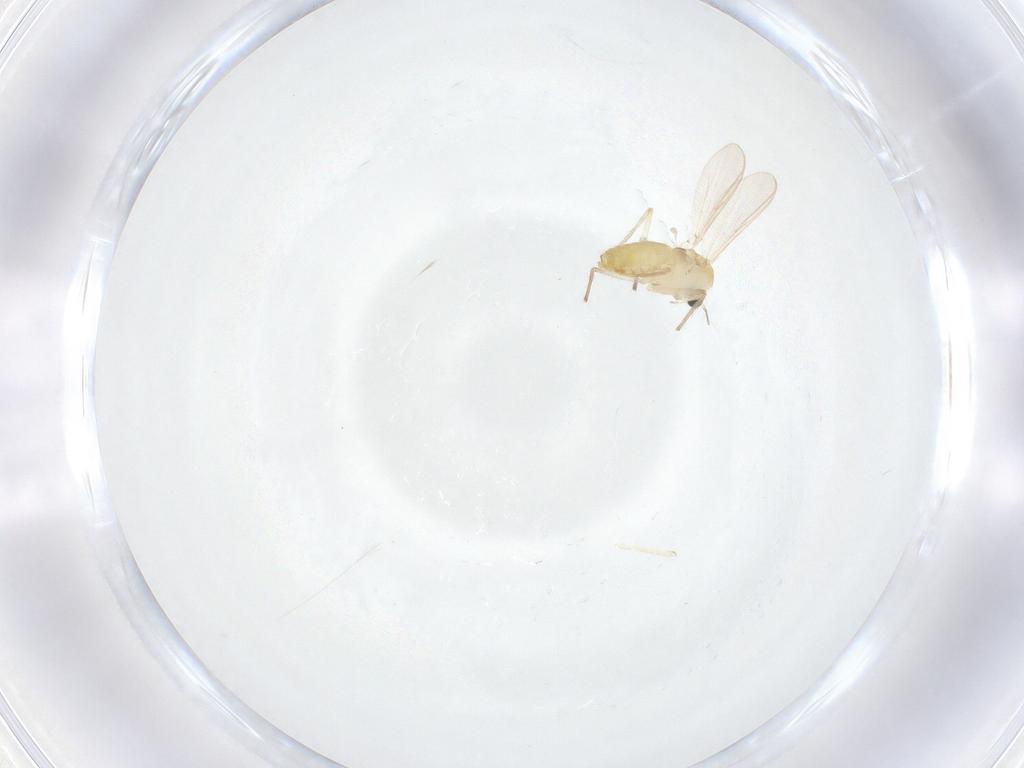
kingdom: Animalia
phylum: Arthropoda
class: Insecta
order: Diptera
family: Chironomidae
